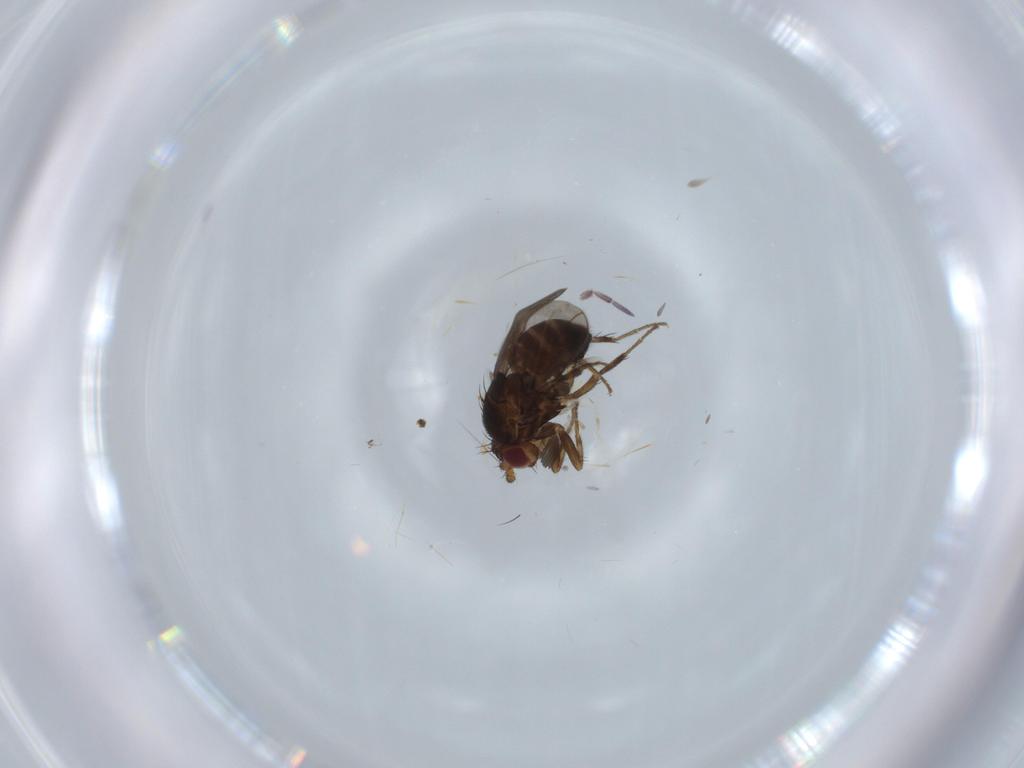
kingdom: Animalia
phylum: Arthropoda
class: Insecta
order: Diptera
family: Sphaeroceridae
